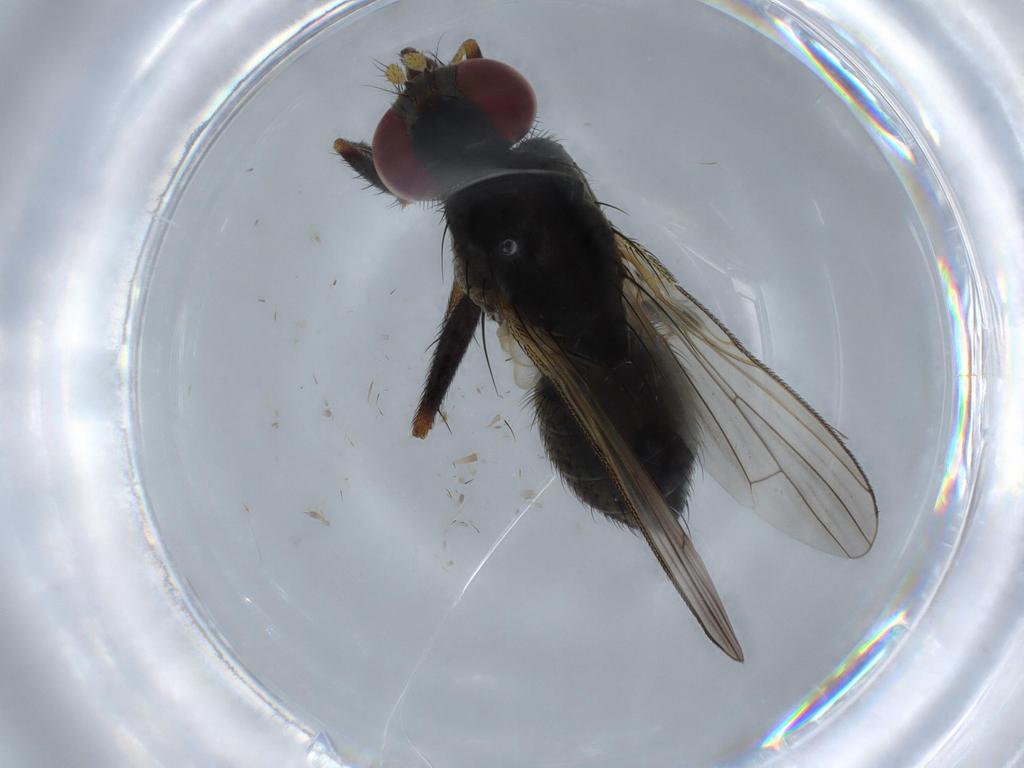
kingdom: Animalia
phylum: Arthropoda
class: Insecta
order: Diptera
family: Muscidae
